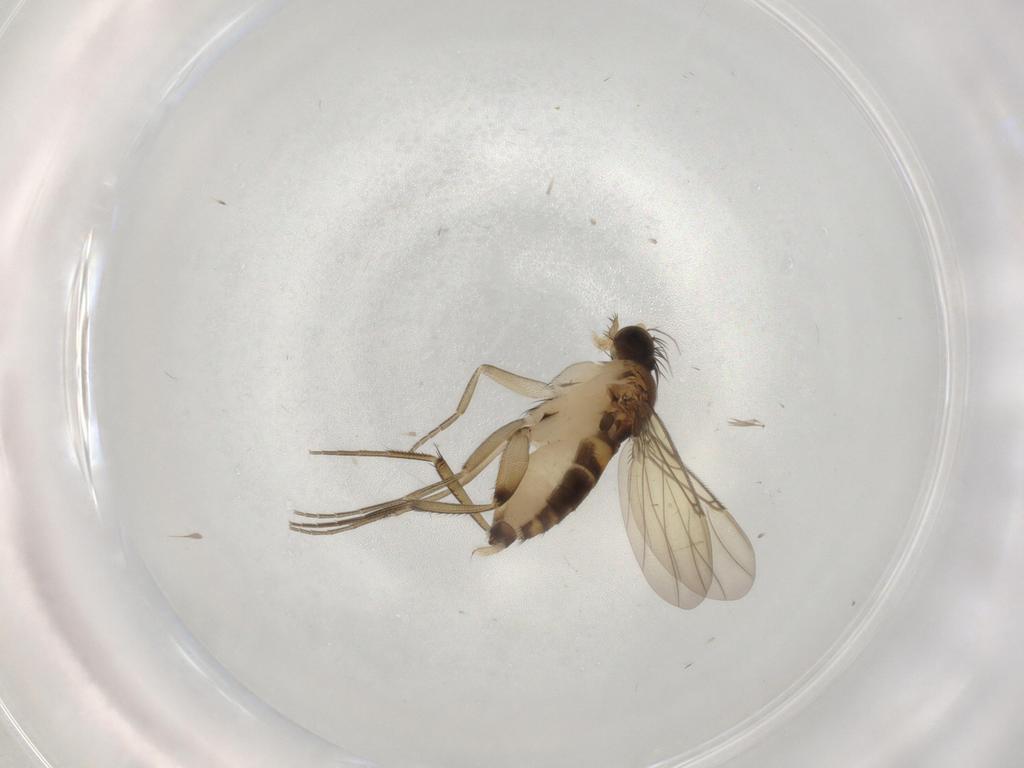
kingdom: Animalia
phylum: Arthropoda
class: Insecta
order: Diptera
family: Phoridae
